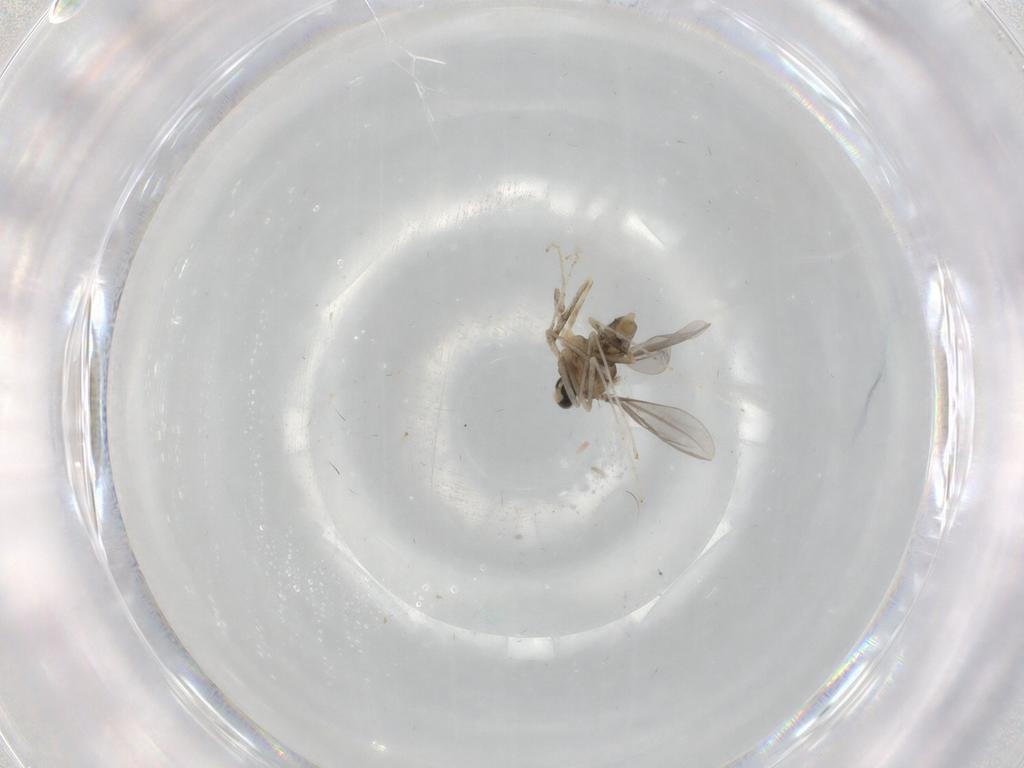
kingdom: Animalia
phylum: Arthropoda
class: Insecta
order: Diptera
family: Cecidomyiidae
